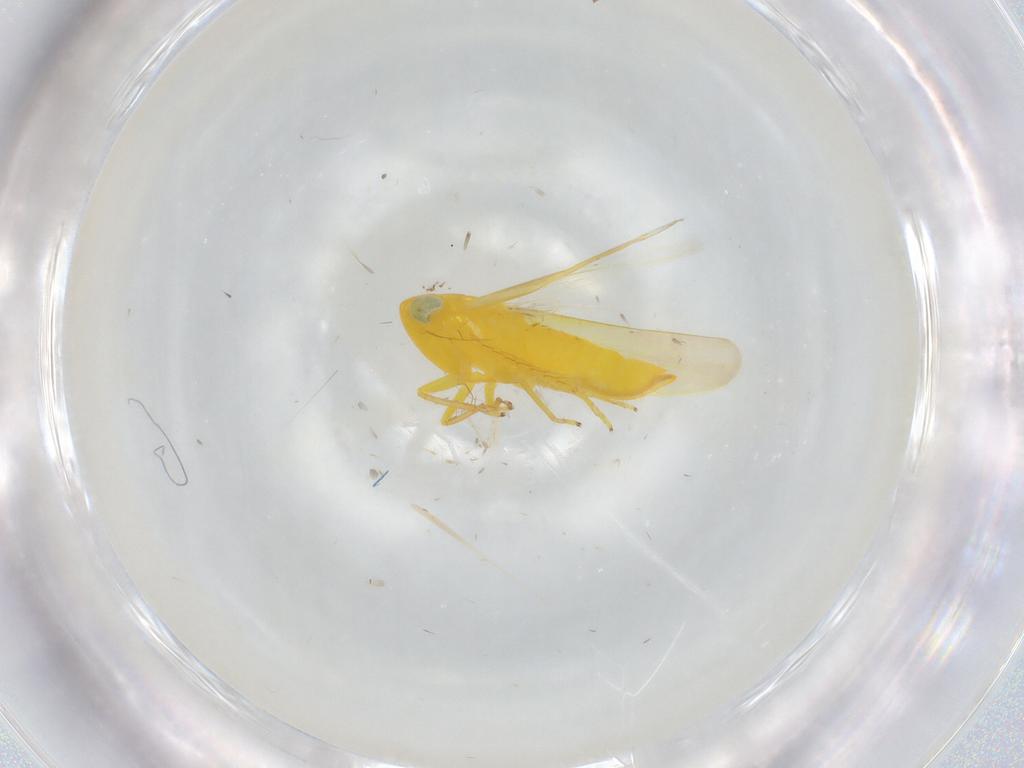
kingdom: Animalia
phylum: Arthropoda
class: Insecta
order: Hemiptera
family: Cicadellidae
